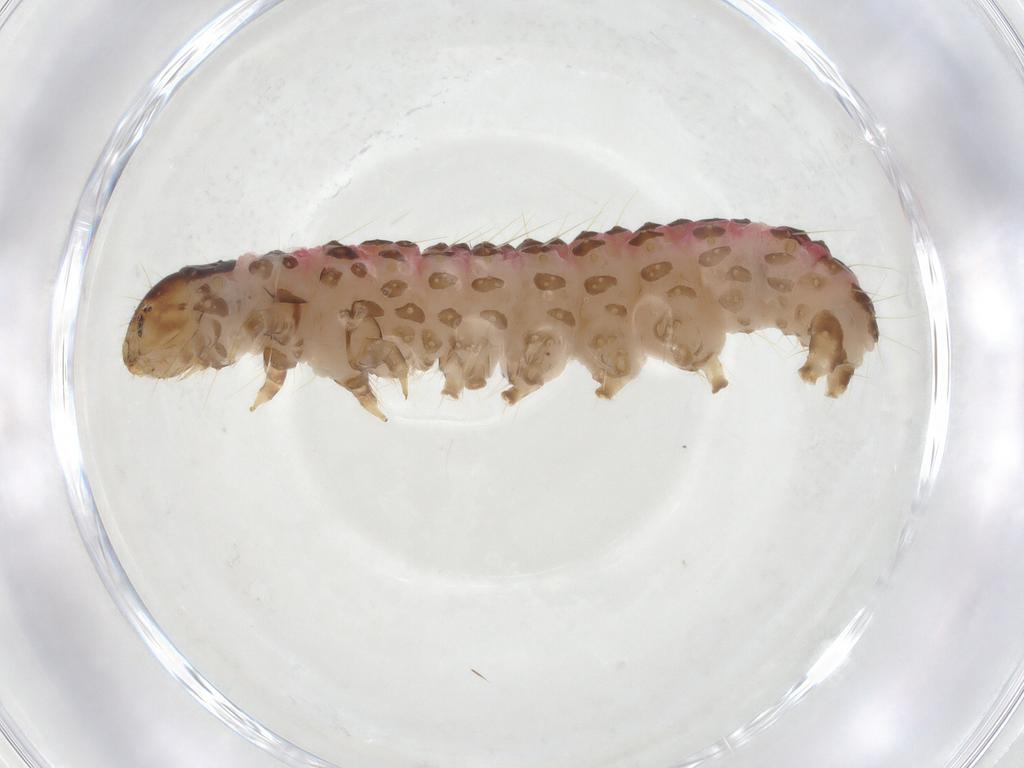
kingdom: Animalia
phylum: Arthropoda
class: Insecta
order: Lepidoptera
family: Crambidae
